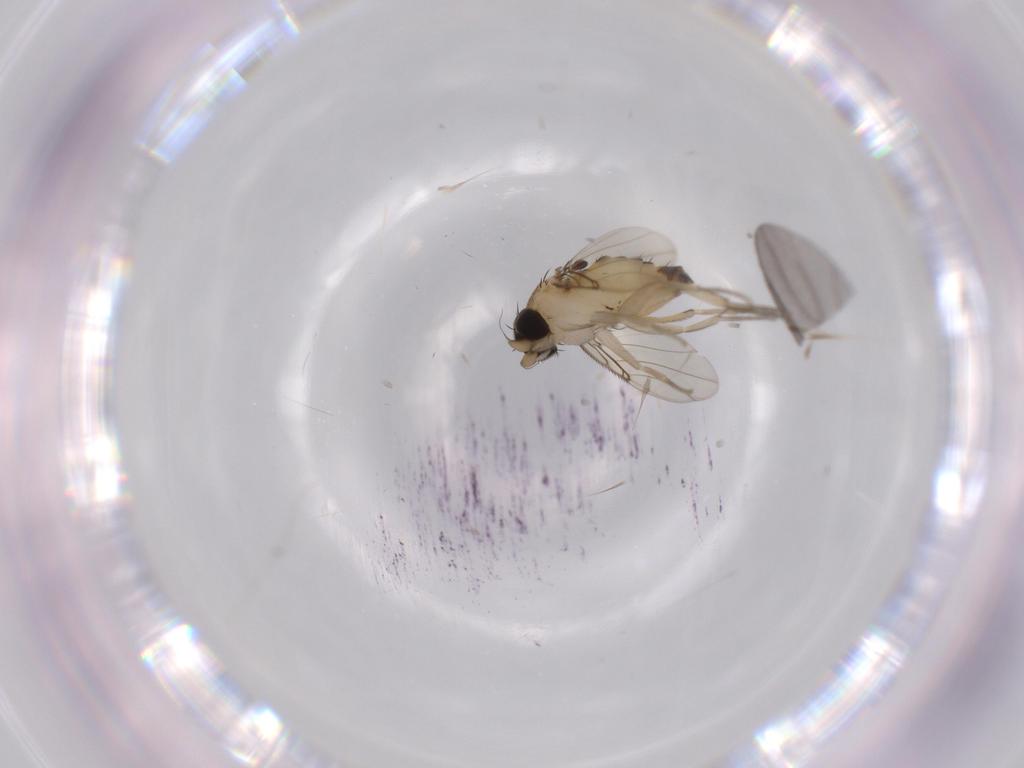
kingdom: Animalia
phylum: Arthropoda
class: Insecta
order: Diptera
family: Phoridae
